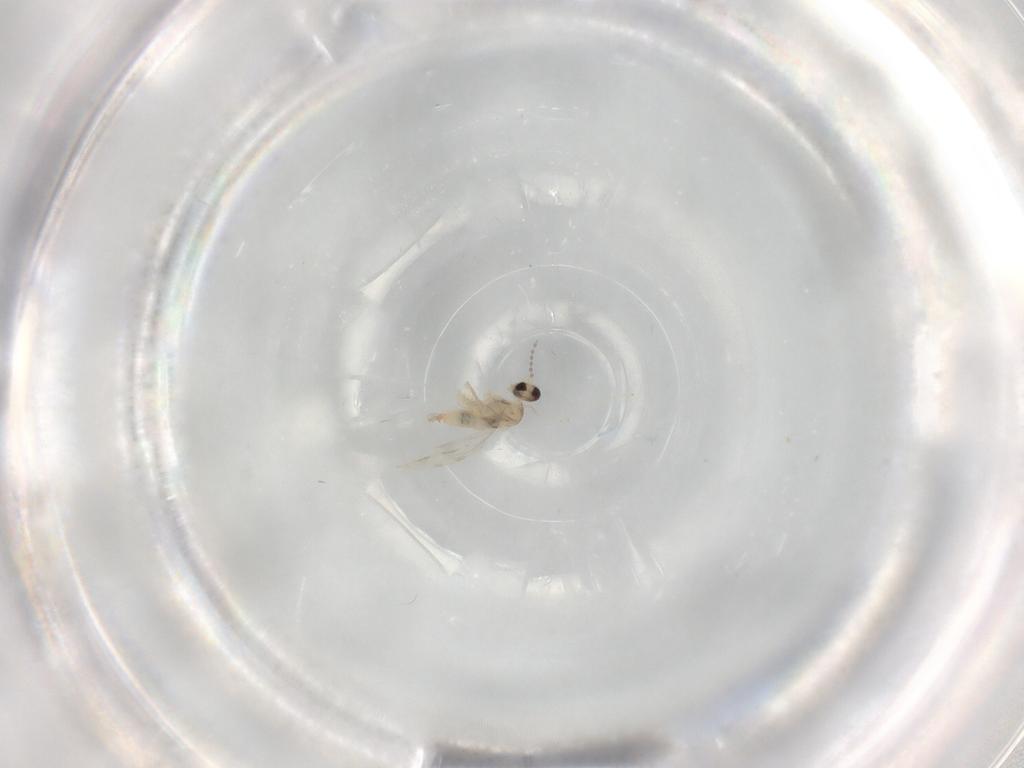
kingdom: Animalia
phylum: Arthropoda
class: Insecta
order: Diptera
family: Cecidomyiidae
